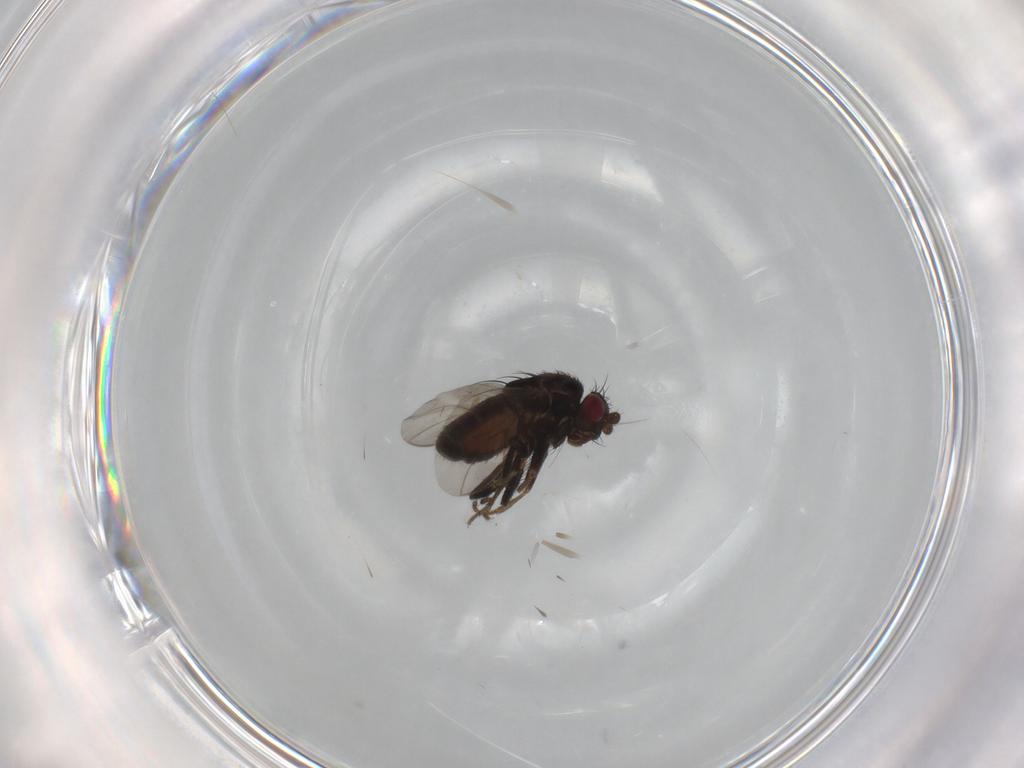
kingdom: Animalia
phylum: Arthropoda
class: Insecta
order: Diptera
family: Sphaeroceridae
